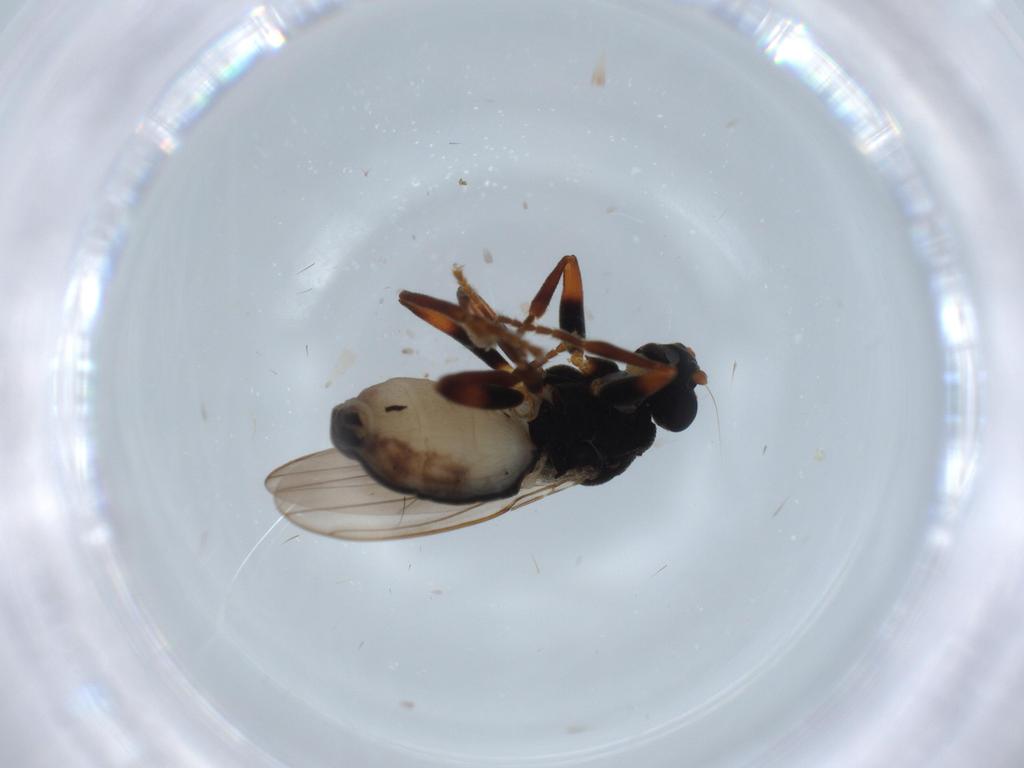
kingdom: Animalia
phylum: Arthropoda
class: Insecta
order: Diptera
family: Sphaeroceridae
